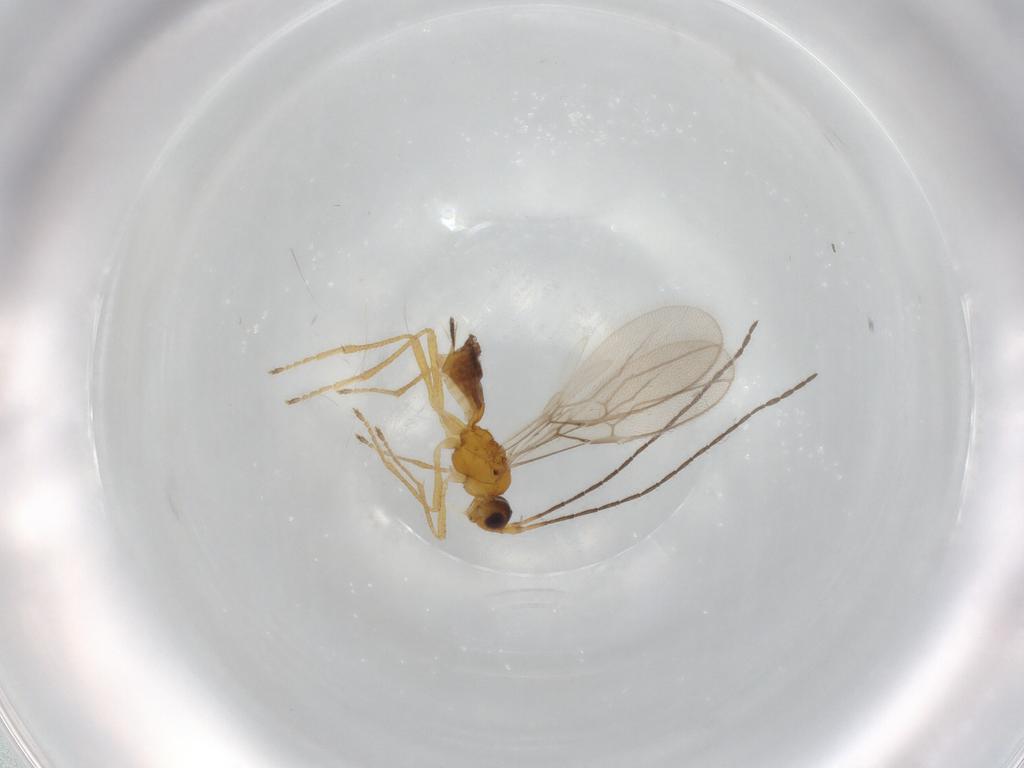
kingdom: Animalia
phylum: Arthropoda
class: Insecta
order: Hymenoptera
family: Braconidae
